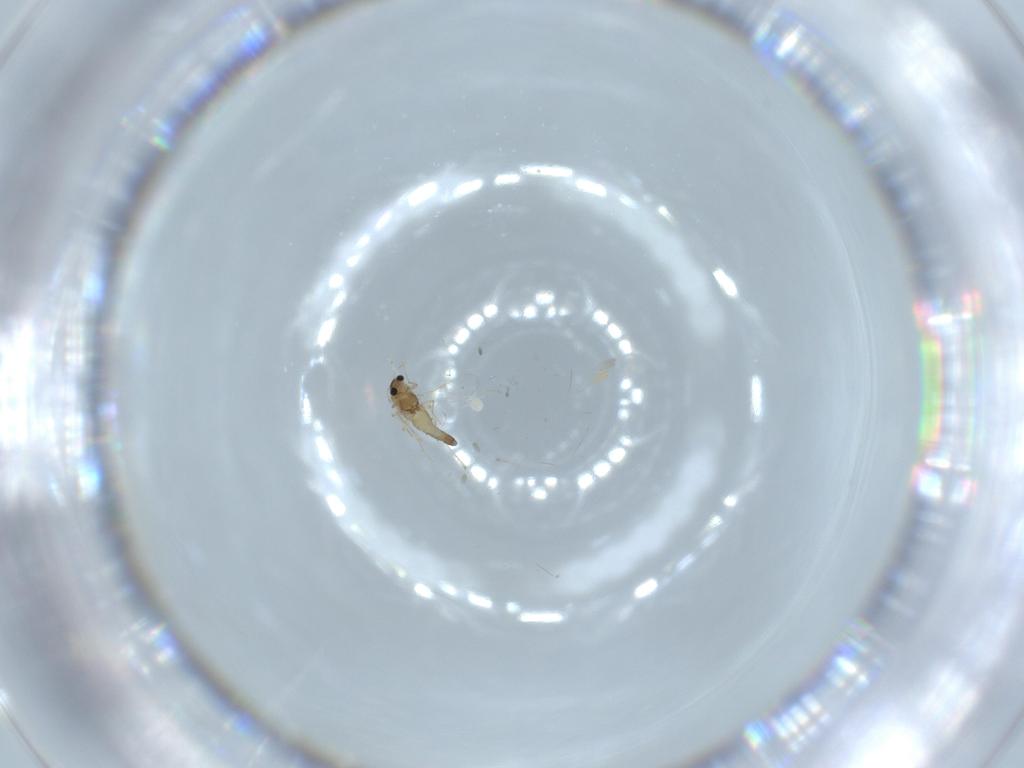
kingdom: Animalia
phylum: Arthropoda
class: Insecta
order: Diptera
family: Chironomidae
